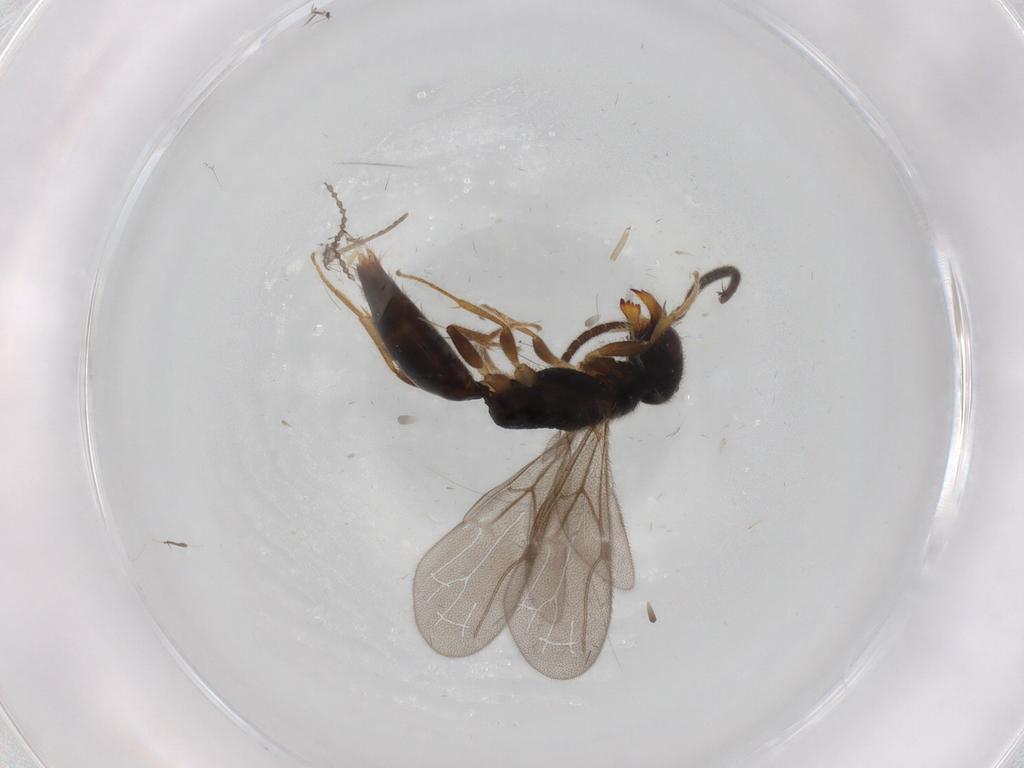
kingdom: Animalia
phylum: Arthropoda
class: Insecta
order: Hymenoptera
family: Bethylidae
